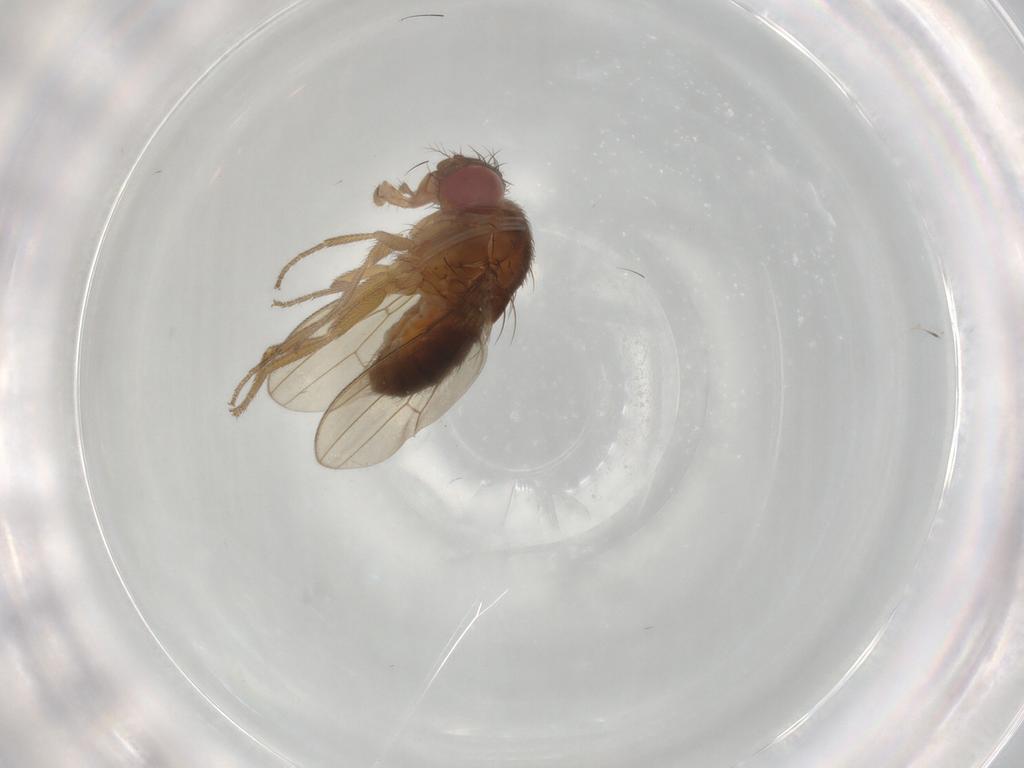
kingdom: Animalia
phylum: Arthropoda
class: Insecta
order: Diptera
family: Drosophilidae
